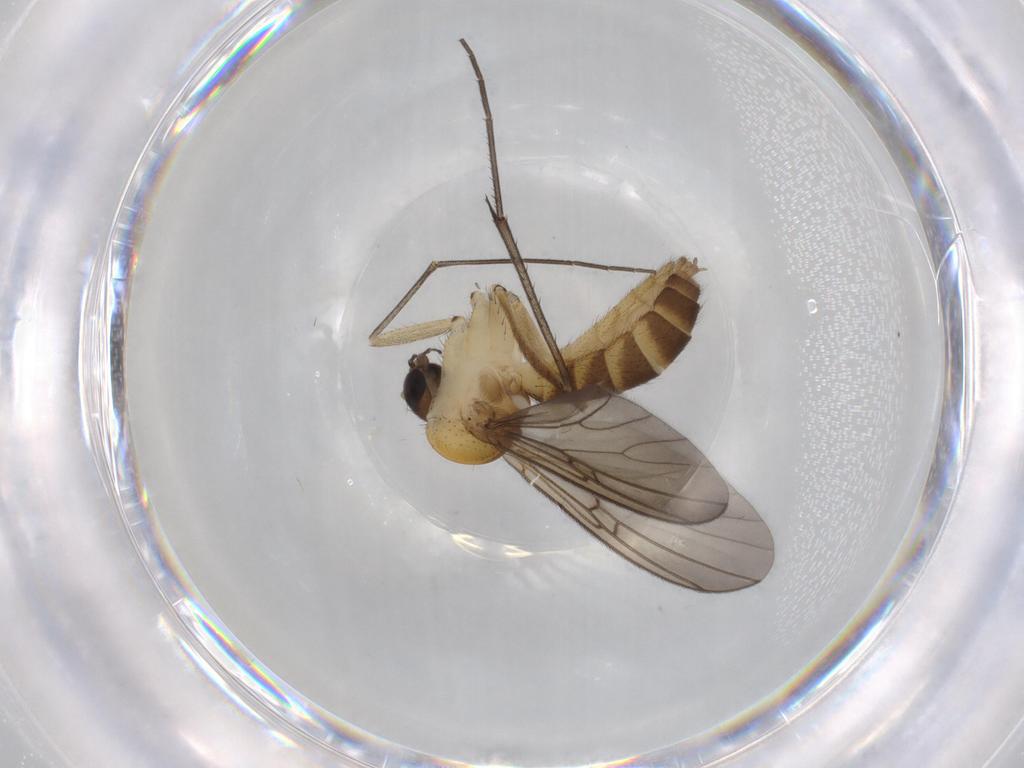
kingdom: Animalia
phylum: Arthropoda
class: Insecta
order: Diptera
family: Mycetophilidae
